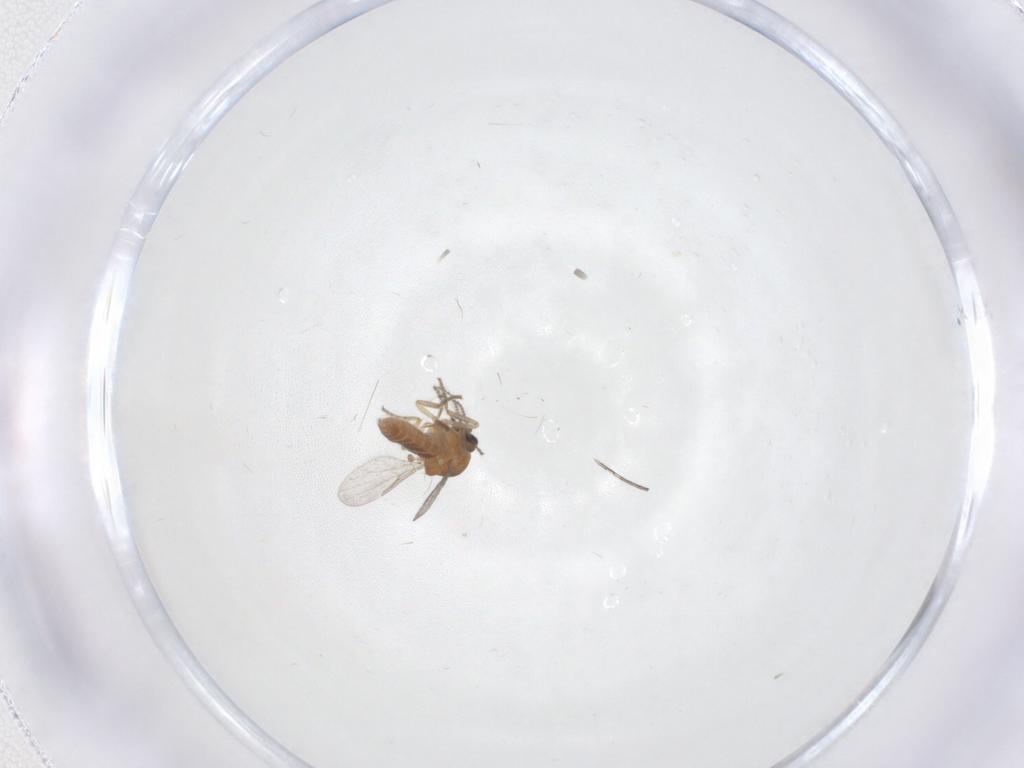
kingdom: Animalia
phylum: Arthropoda
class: Insecta
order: Diptera
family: Ceratopogonidae
